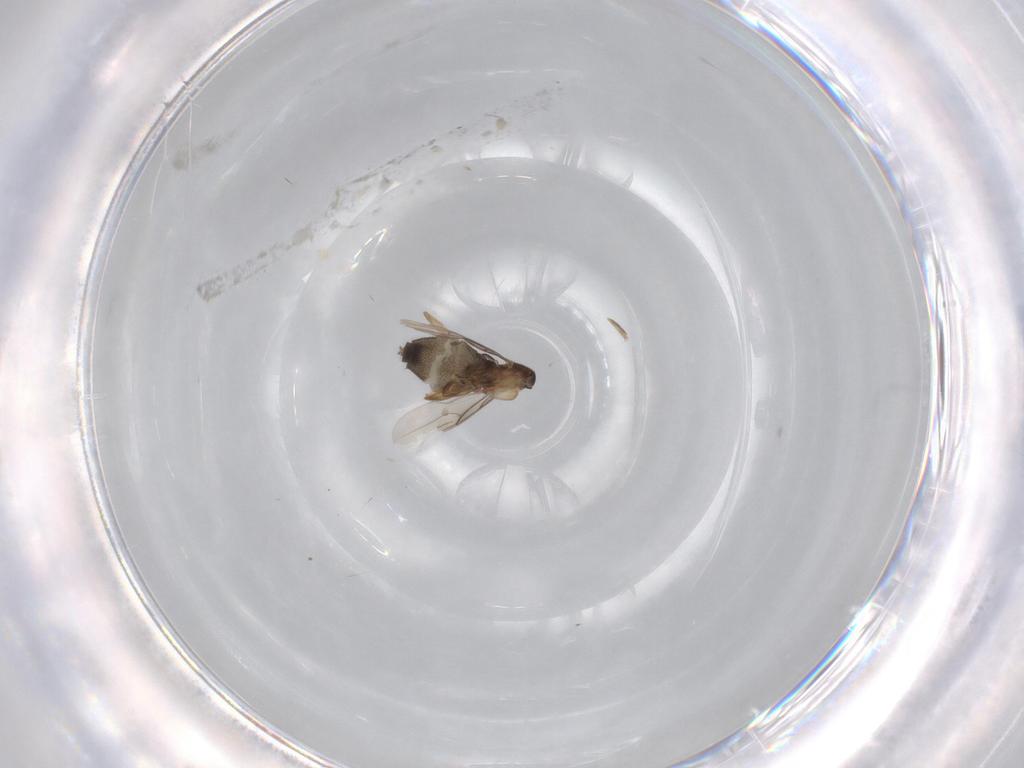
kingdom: Animalia
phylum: Arthropoda
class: Insecta
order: Diptera
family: Phoridae
